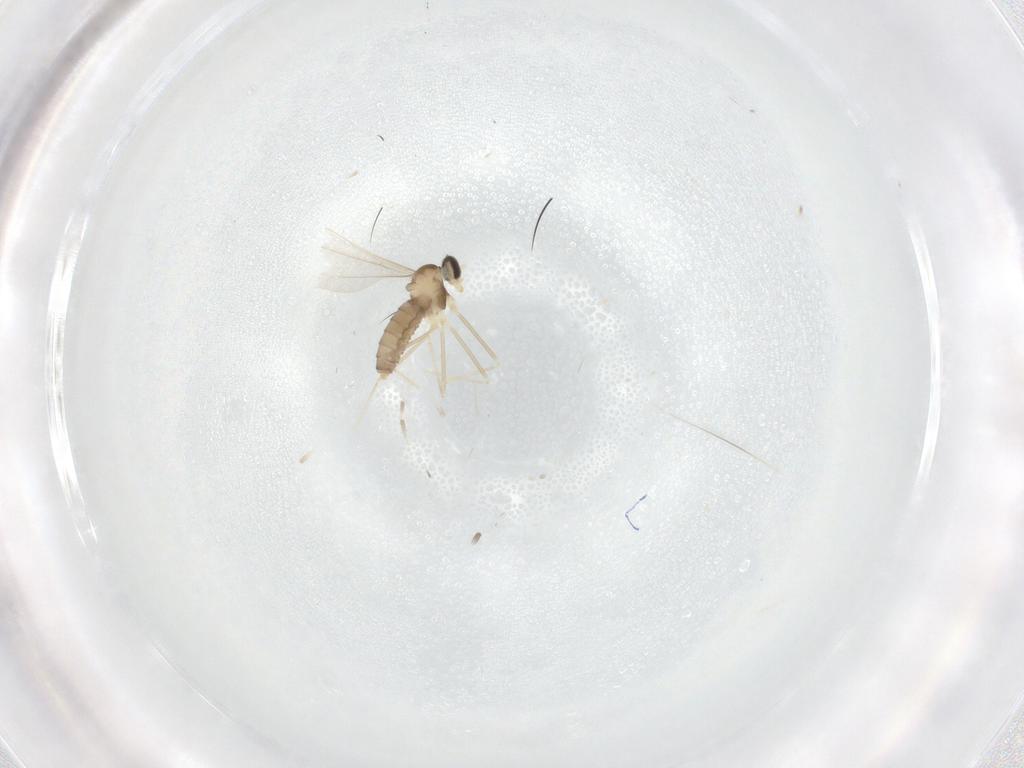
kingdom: Animalia
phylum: Arthropoda
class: Insecta
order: Diptera
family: Cecidomyiidae
